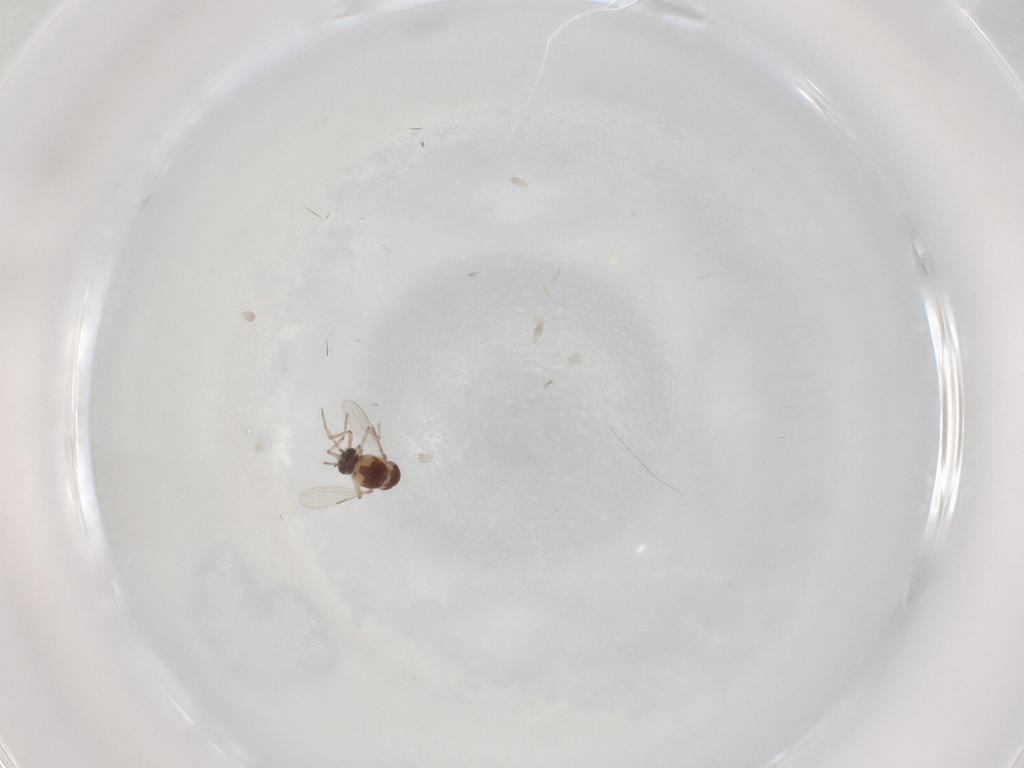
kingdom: Animalia
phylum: Arthropoda
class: Insecta
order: Diptera
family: Ceratopogonidae
